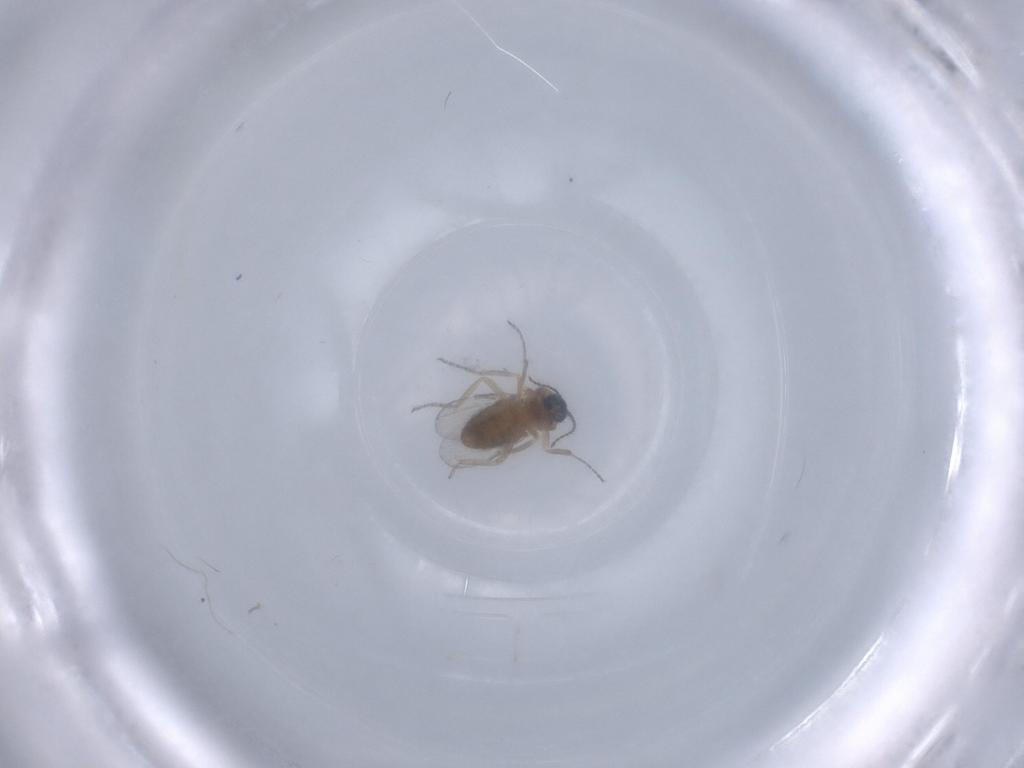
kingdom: Animalia
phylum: Arthropoda
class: Insecta
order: Diptera
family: Ceratopogonidae
